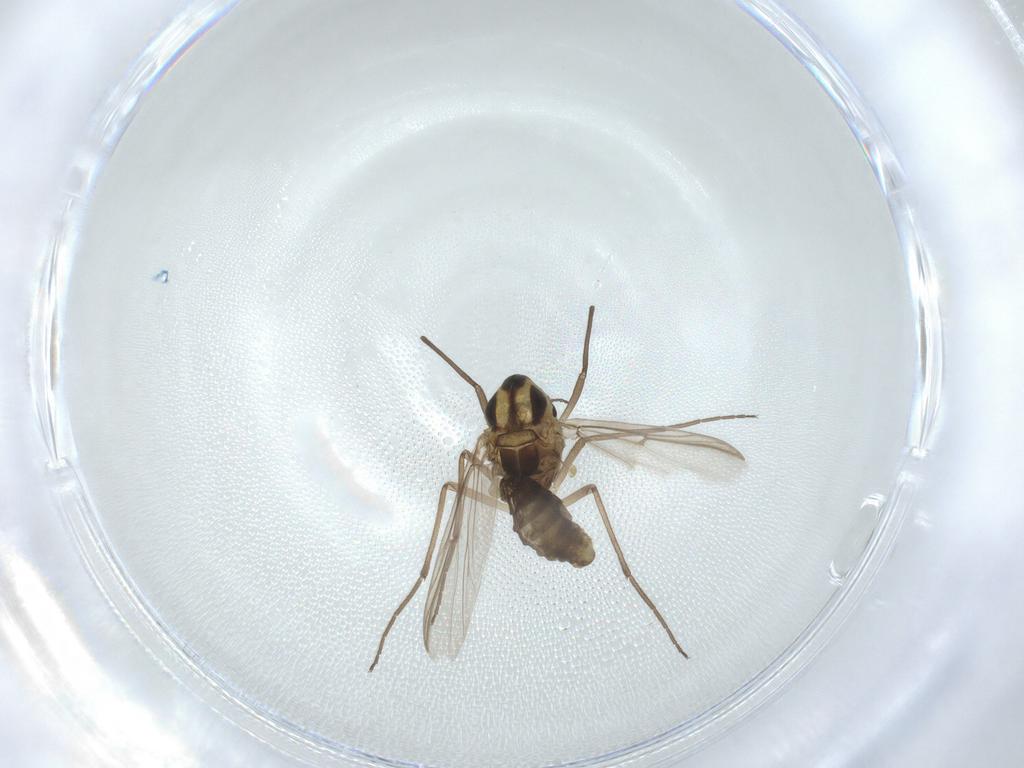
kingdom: Animalia
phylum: Arthropoda
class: Insecta
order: Diptera
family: Chironomidae
